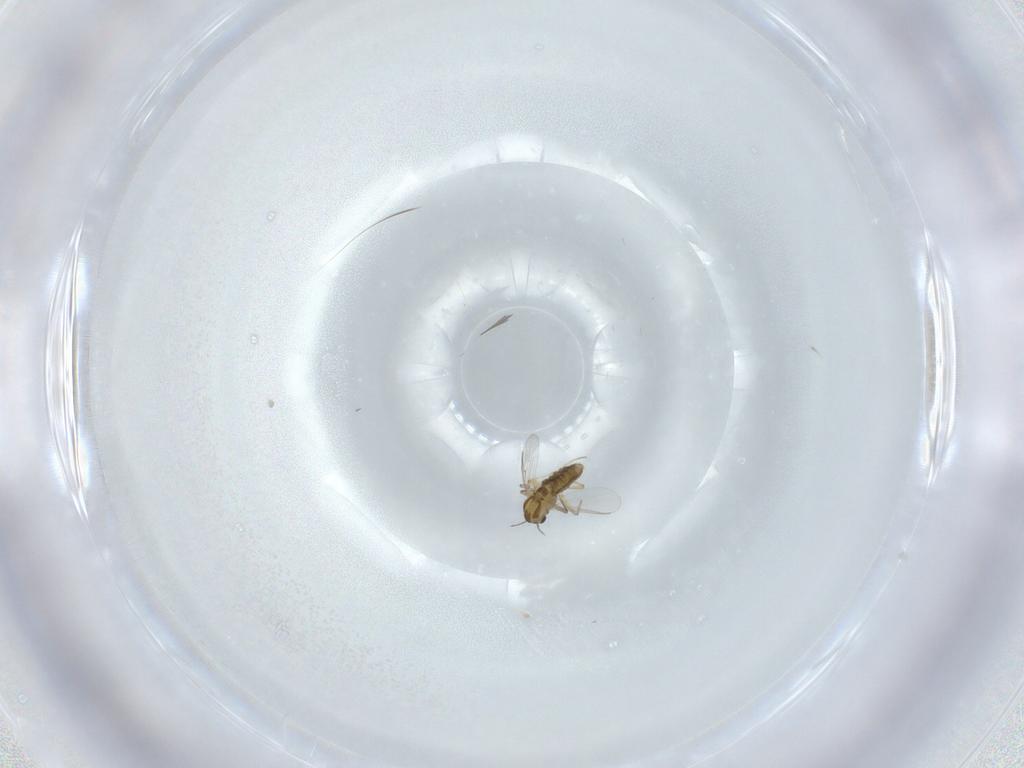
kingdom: Animalia
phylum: Arthropoda
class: Insecta
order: Diptera
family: Chironomidae
